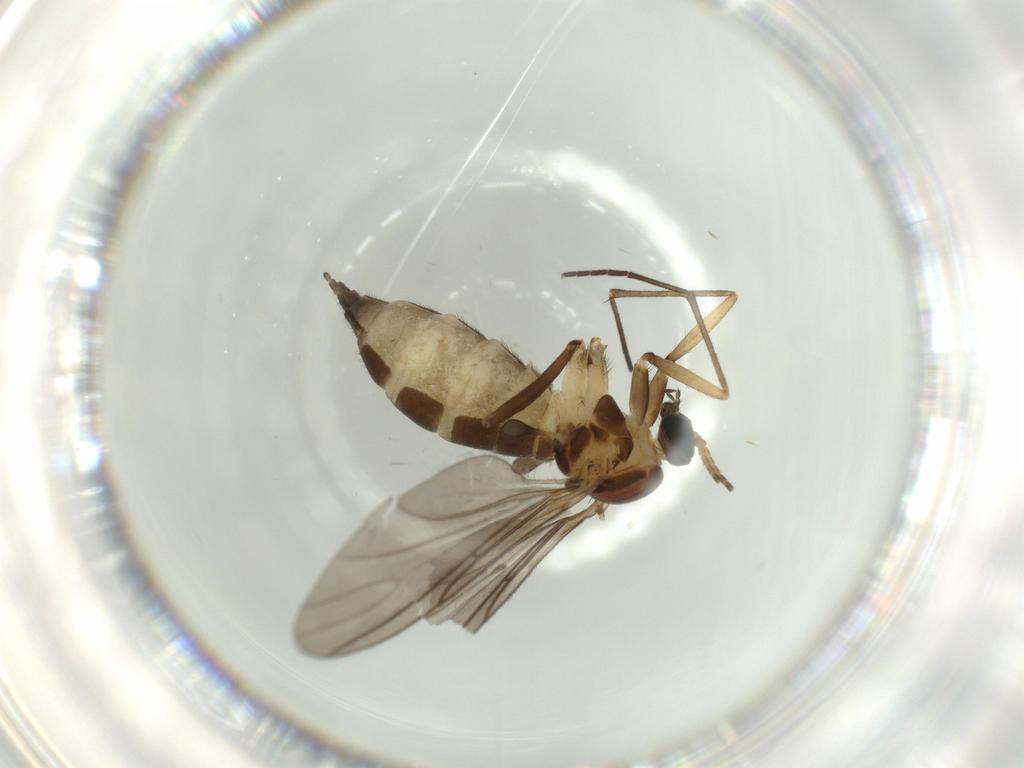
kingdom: Animalia
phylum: Arthropoda
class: Insecta
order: Diptera
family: Sciaridae
